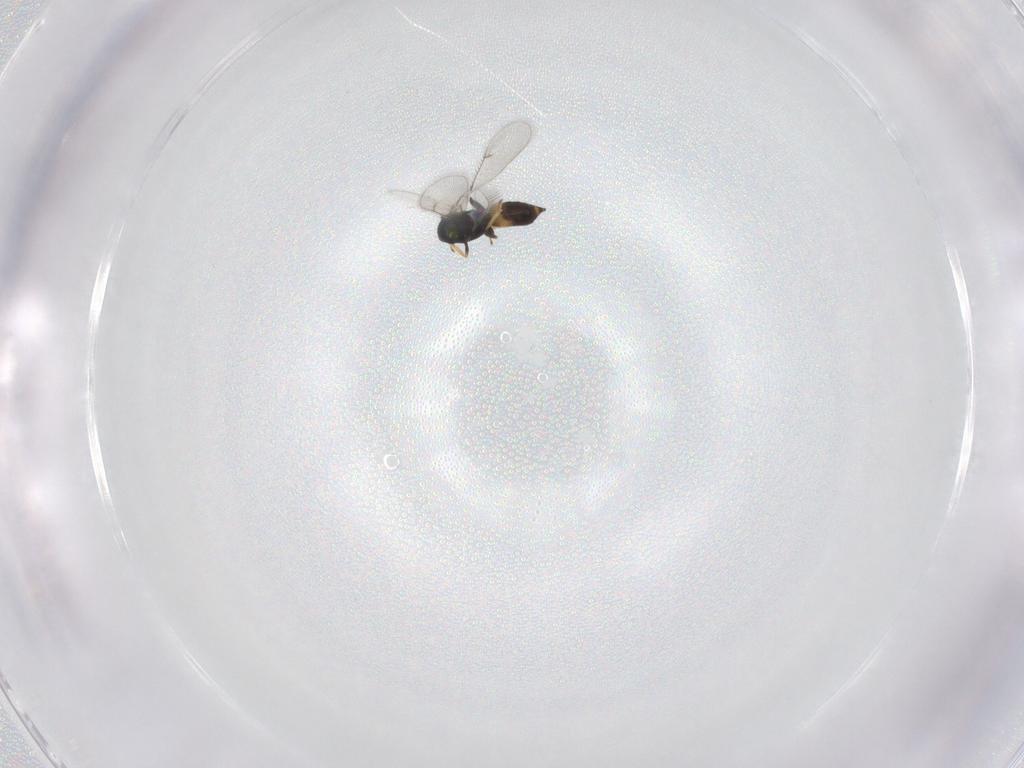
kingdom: Animalia
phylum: Arthropoda
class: Insecta
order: Hymenoptera
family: Eulophidae
